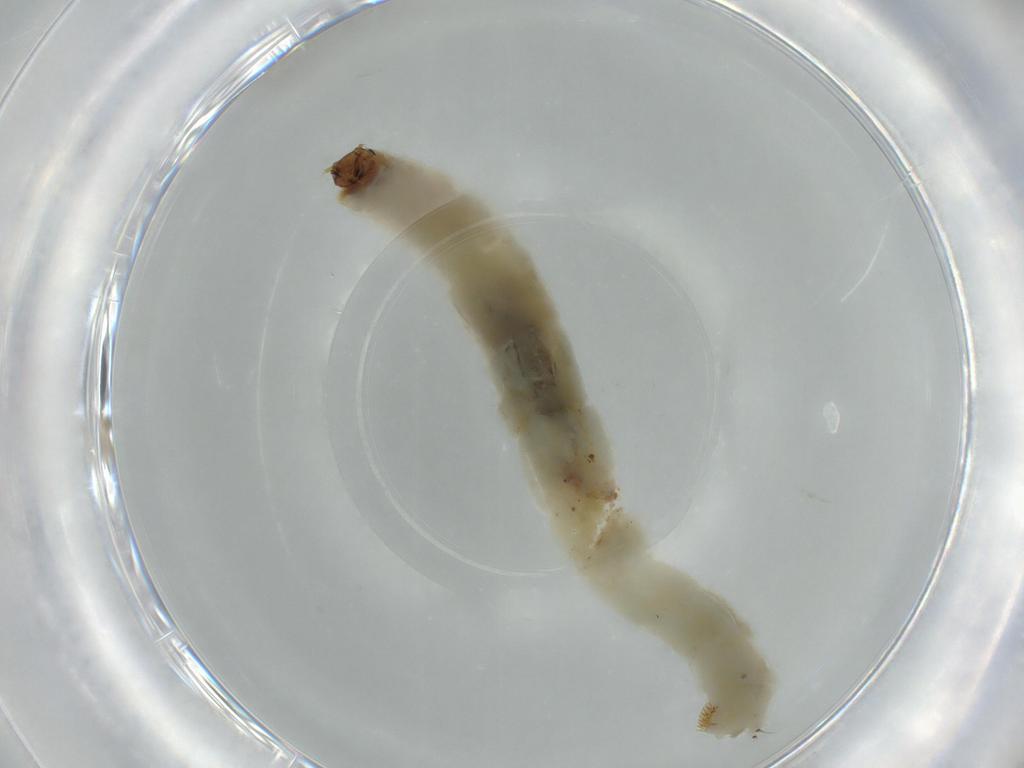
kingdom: Animalia
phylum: Arthropoda
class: Insecta
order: Diptera
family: Chironomidae
